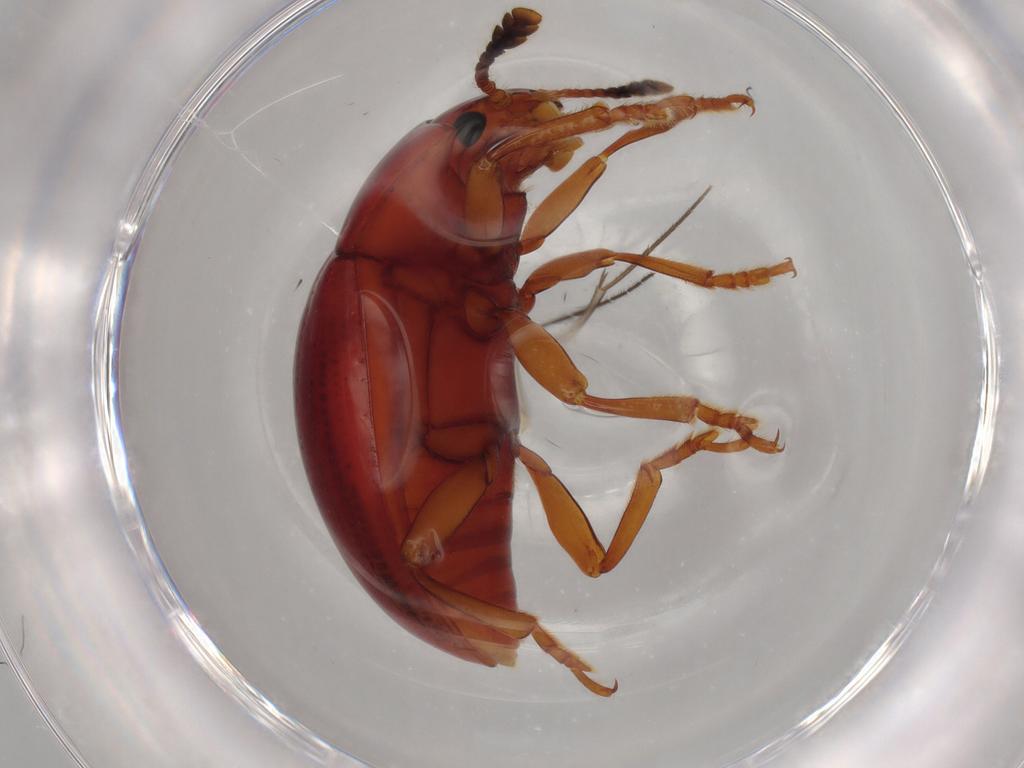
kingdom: Animalia
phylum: Arthropoda
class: Insecta
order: Coleoptera
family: Erotylidae
